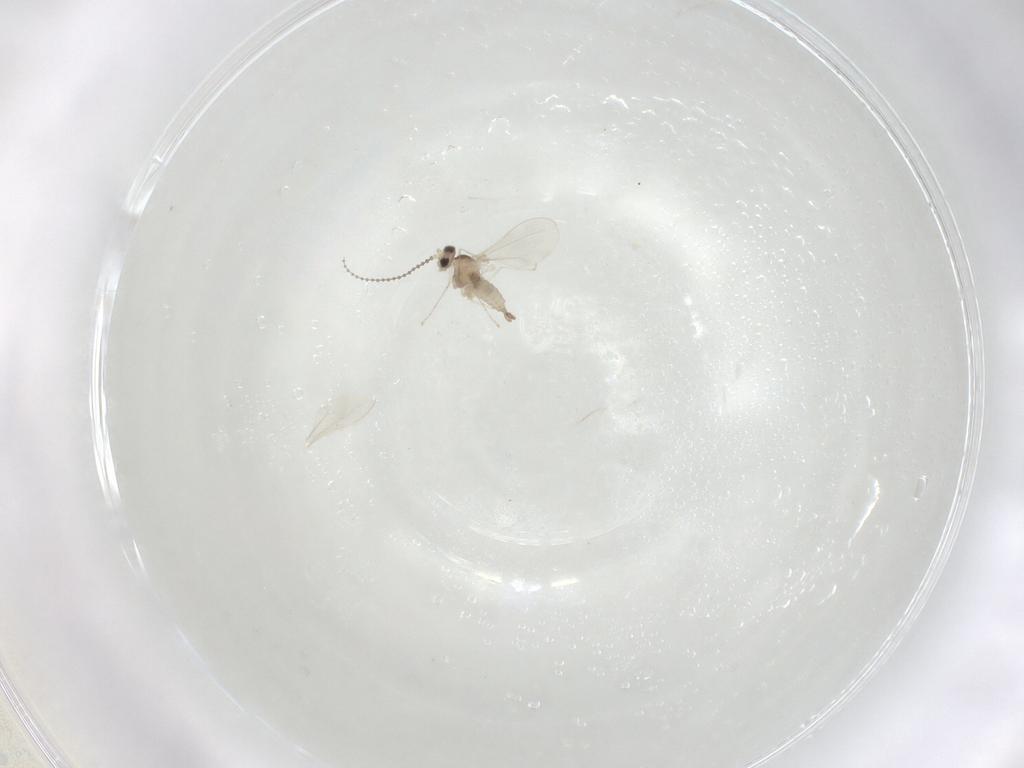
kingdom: Animalia
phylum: Arthropoda
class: Insecta
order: Diptera
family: Cecidomyiidae
